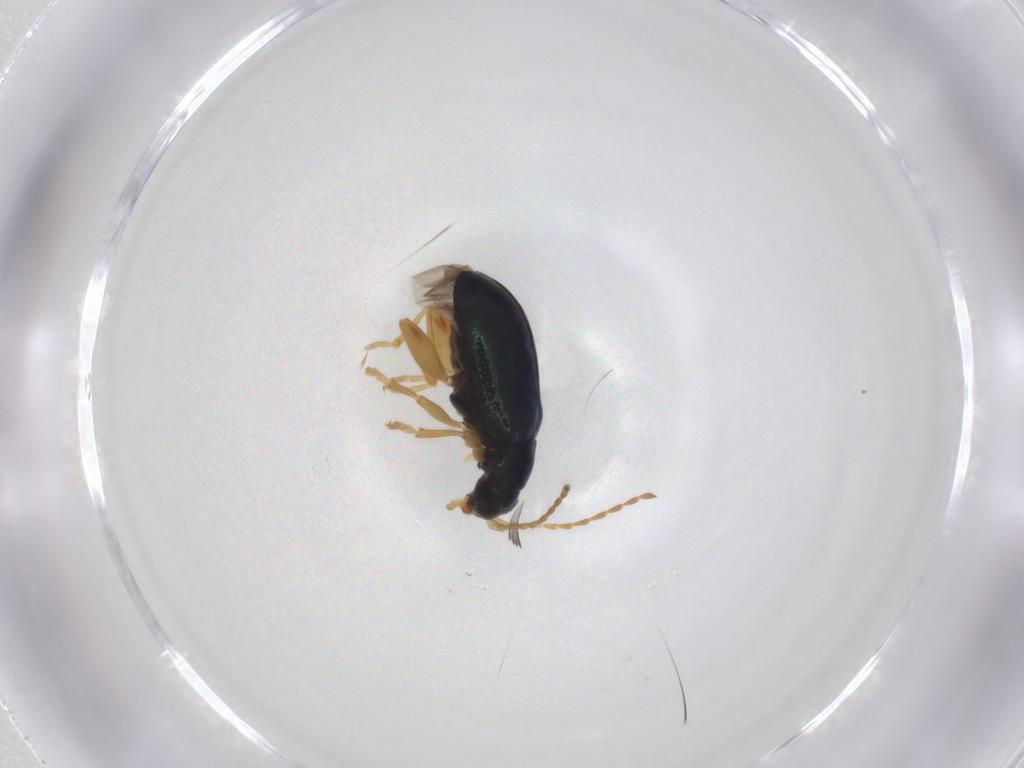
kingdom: Animalia
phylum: Arthropoda
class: Insecta
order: Coleoptera
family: Chrysomelidae
